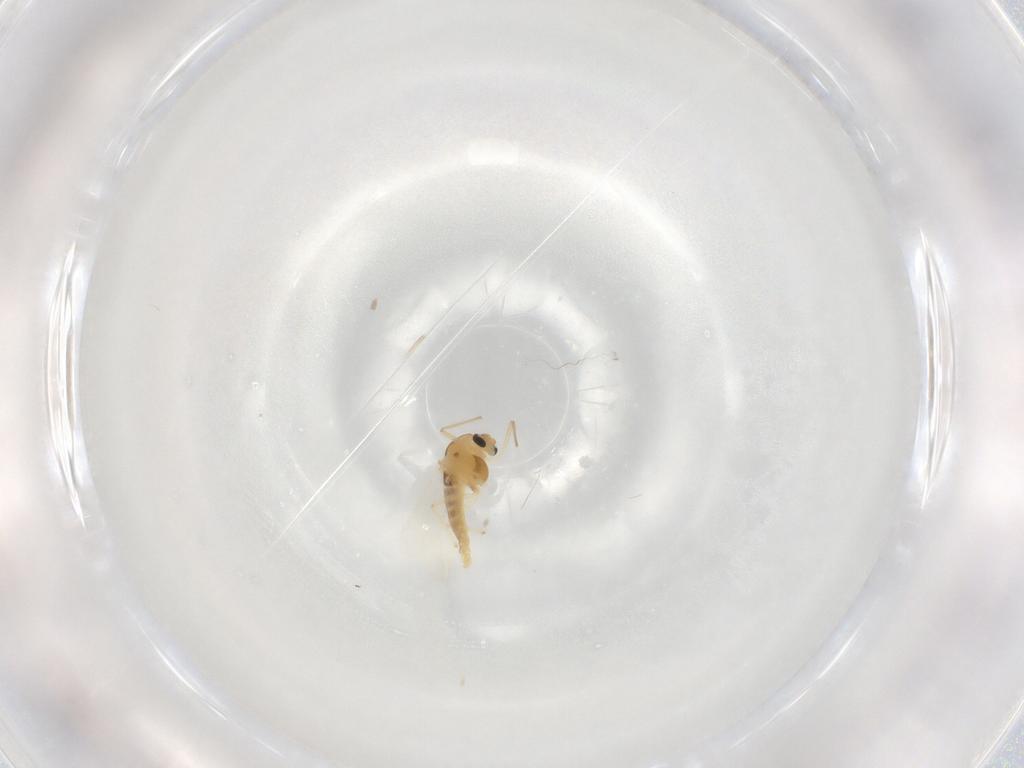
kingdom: Animalia
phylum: Arthropoda
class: Insecta
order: Diptera
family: Chironomidae
